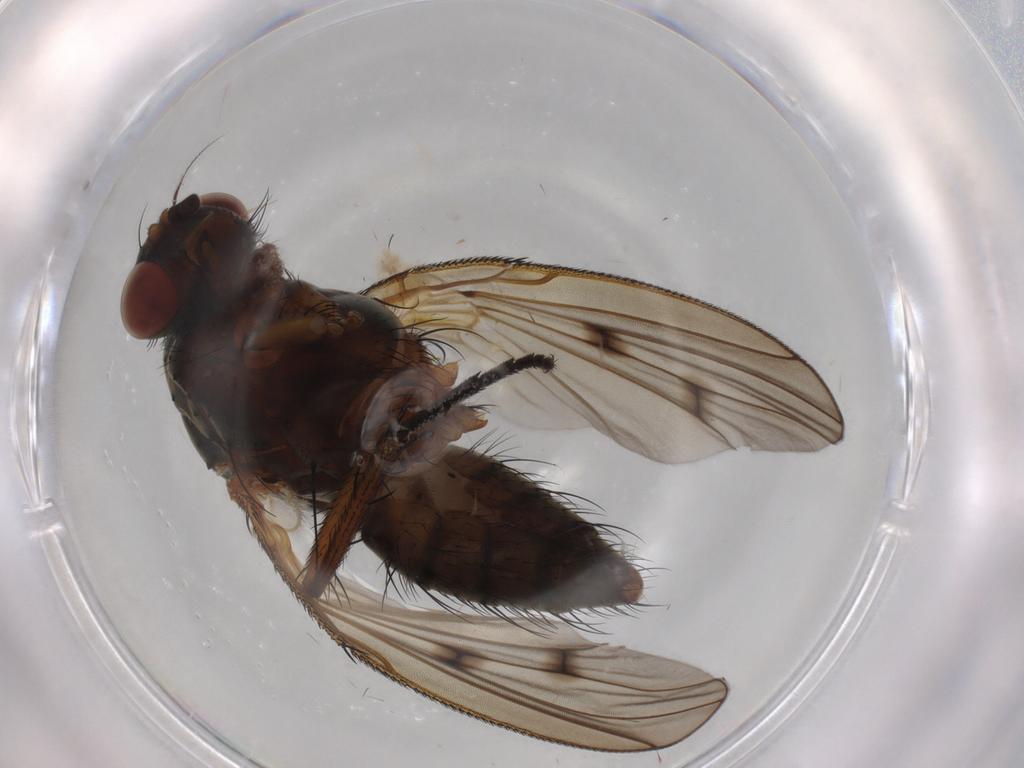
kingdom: Animalia
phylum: Arthropoda
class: Insecta
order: Diptera
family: Anthomyiidae
